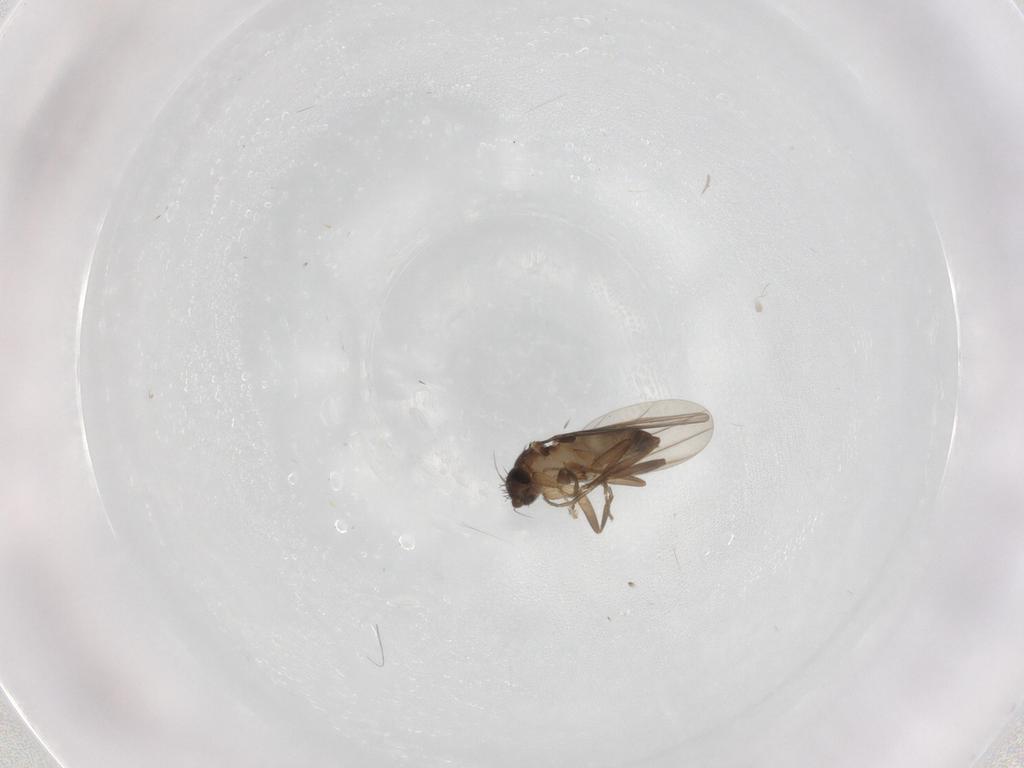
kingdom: Animalia
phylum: Arthropoda
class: Insecta
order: Diptera
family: Phoridae
